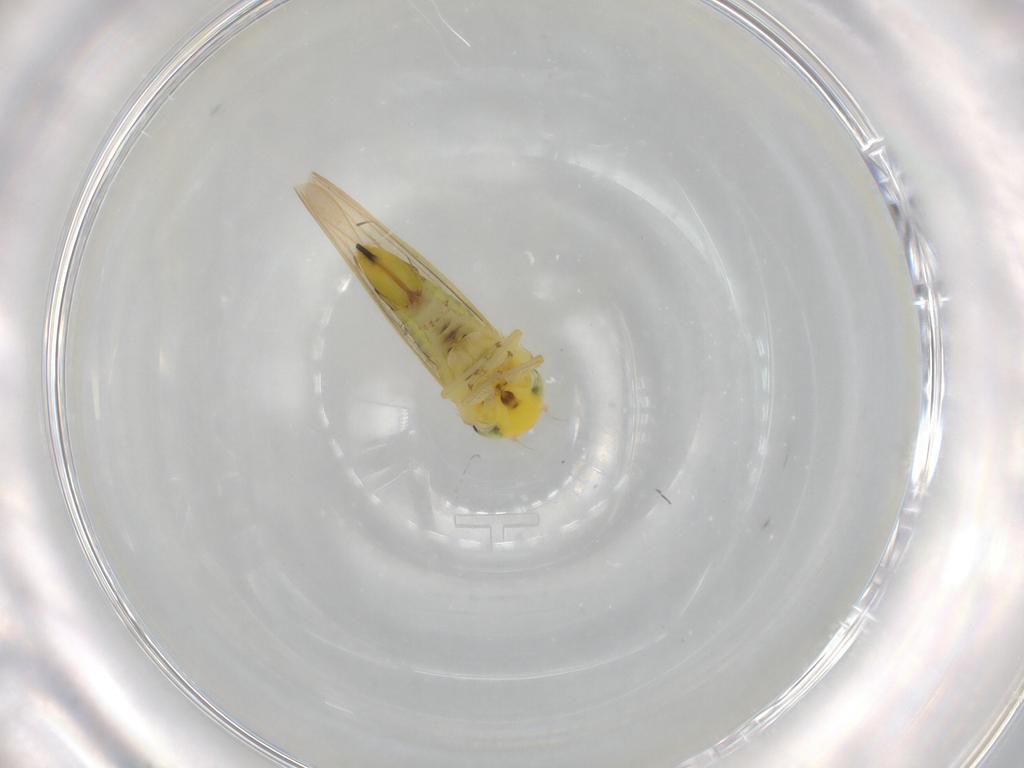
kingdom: Animalia
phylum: Arthropoda
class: Insecta
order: Hemiptera
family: Cicadellidae
